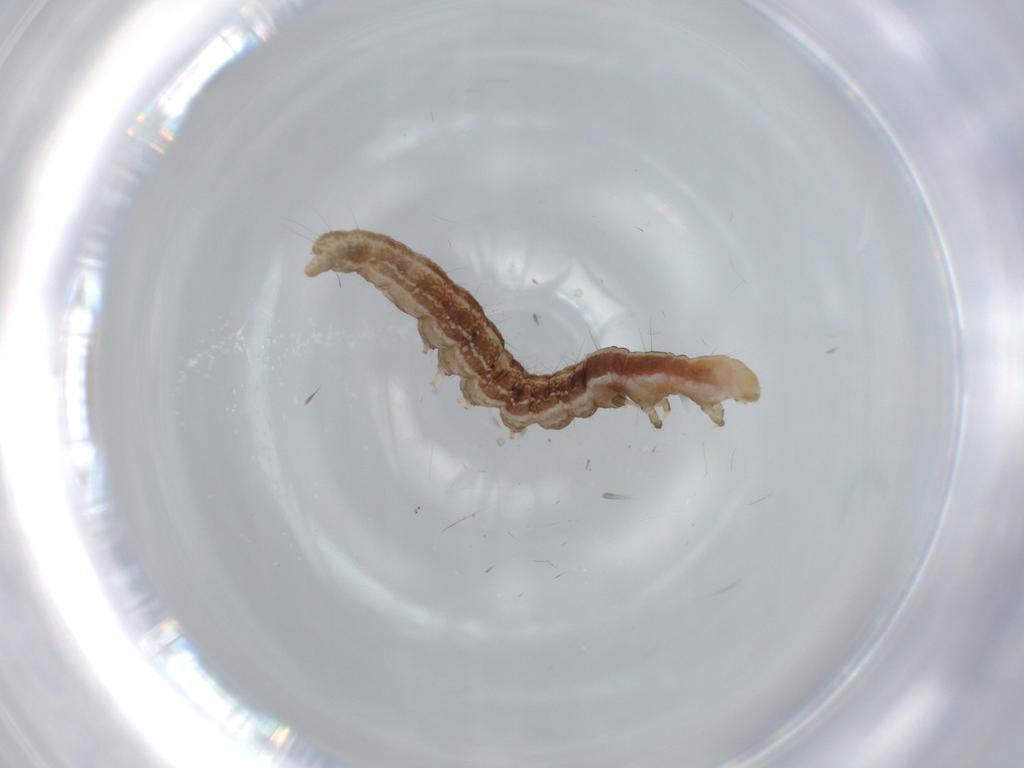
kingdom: Animalia
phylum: Arthropoda
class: Insecta
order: Lepidoptera
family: Gracillariidae
